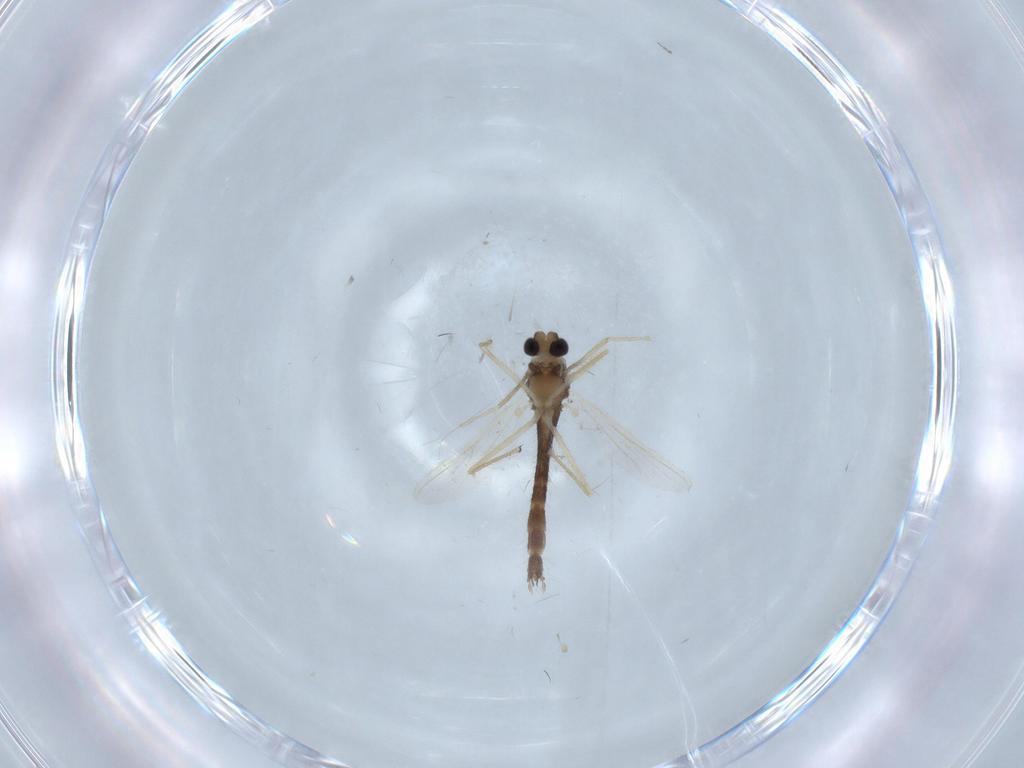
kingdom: Animalia
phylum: Arthropoda
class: Insecta
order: Diptera
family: Chironomidae
